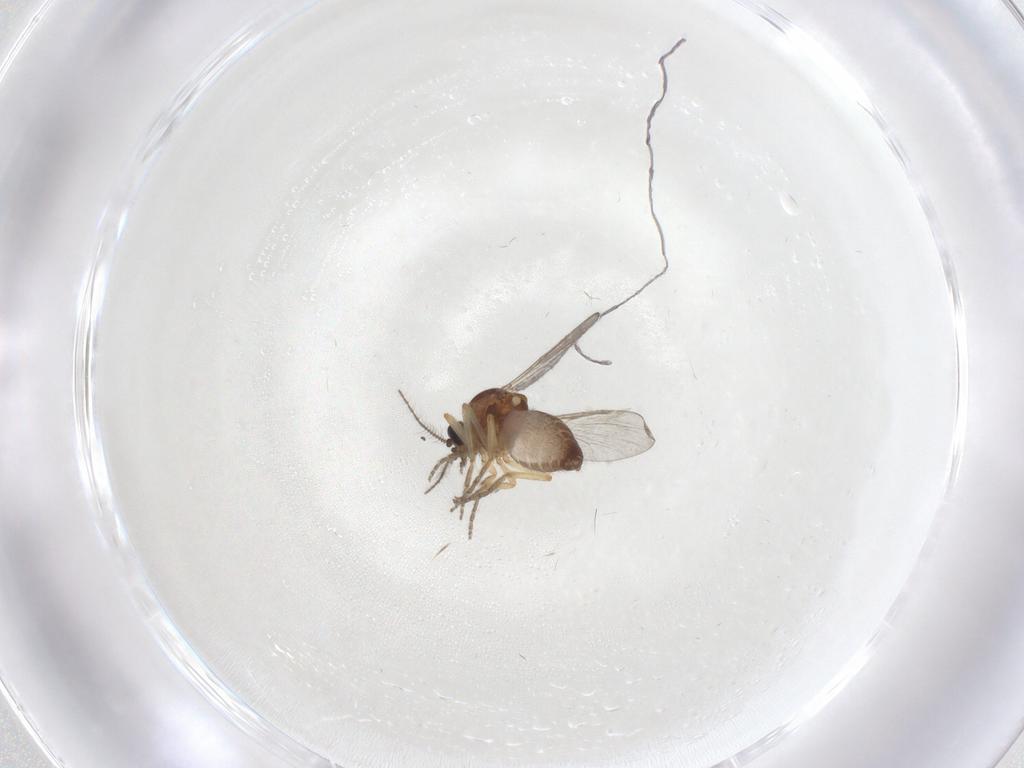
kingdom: Animalia
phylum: Arthropoda
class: Insecta
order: Diptera
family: Ceratopogonidae
